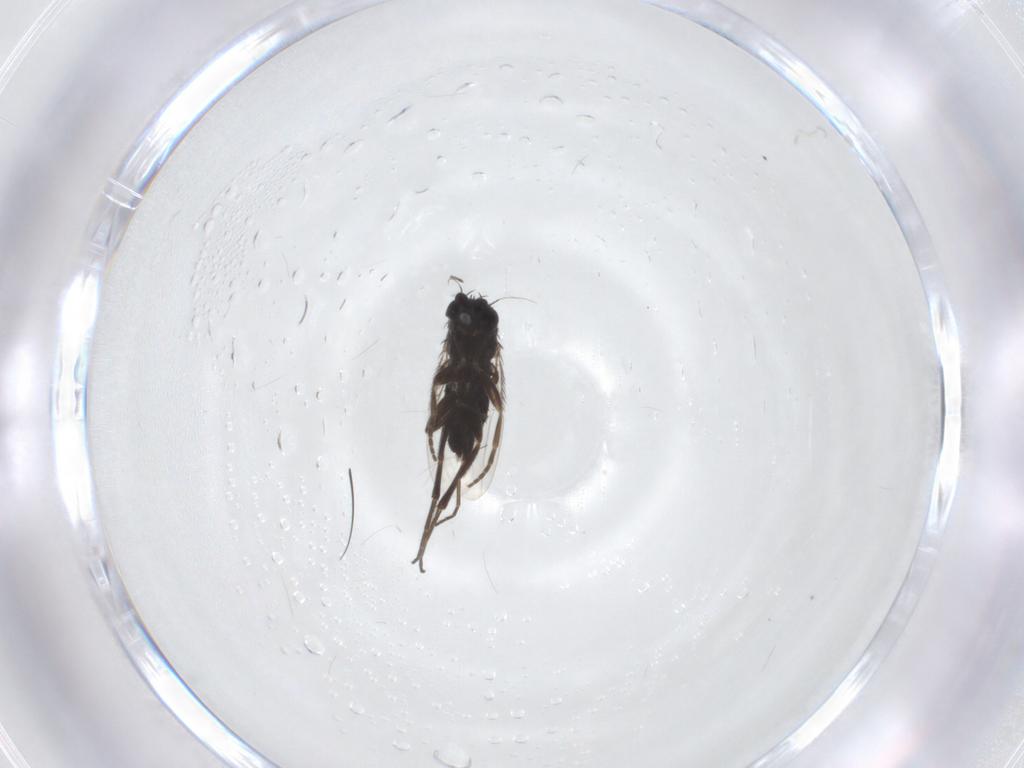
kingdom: Animalia
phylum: Arthropoda
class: Insecta
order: Diptera
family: Phoridae
